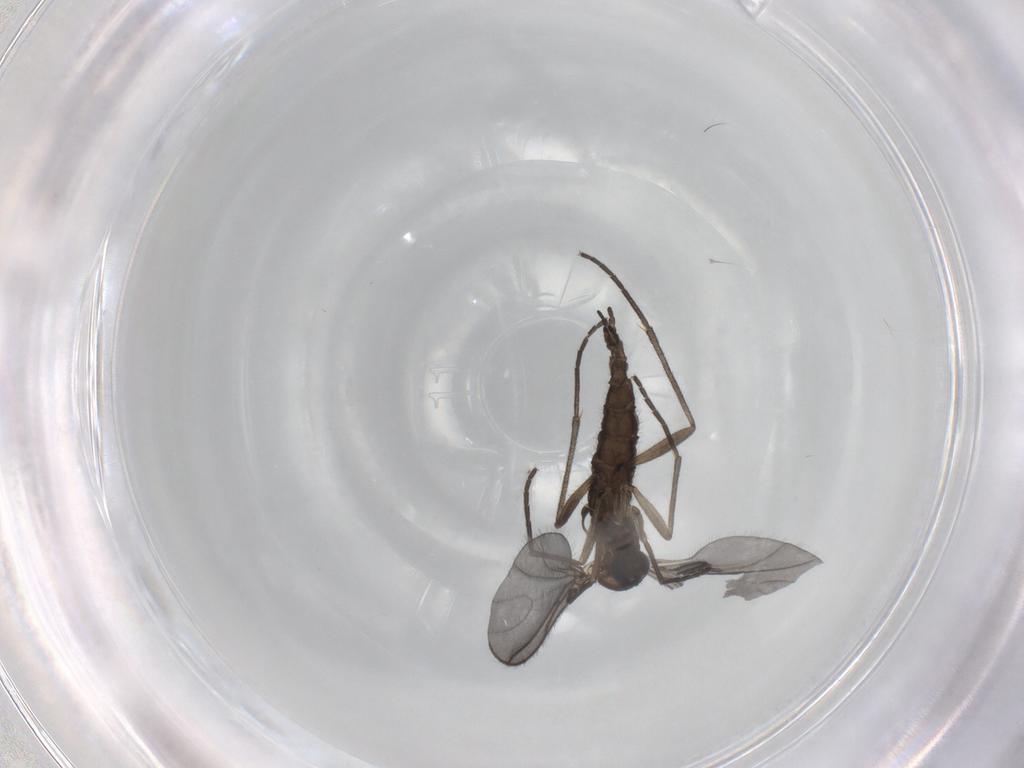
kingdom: Animalia
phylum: Arthropoda
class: Insecta
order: Diptera
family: Sciaridae
